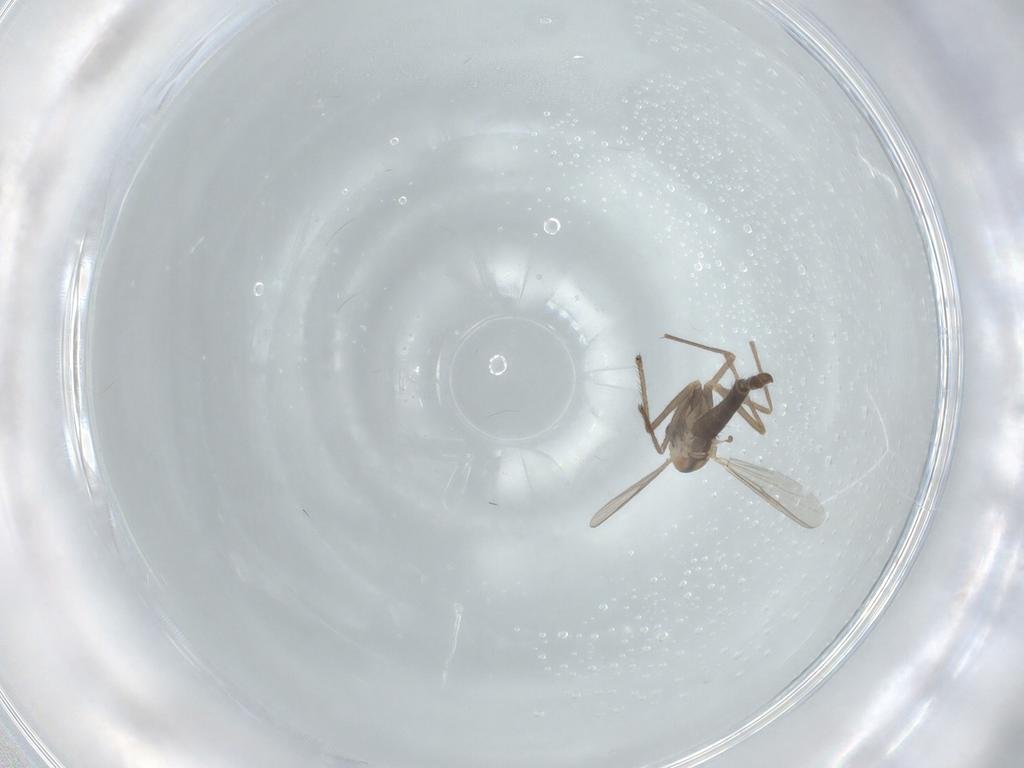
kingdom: Animalia
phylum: Arthropoda
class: Insecta
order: Diptera
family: Chironomidae
